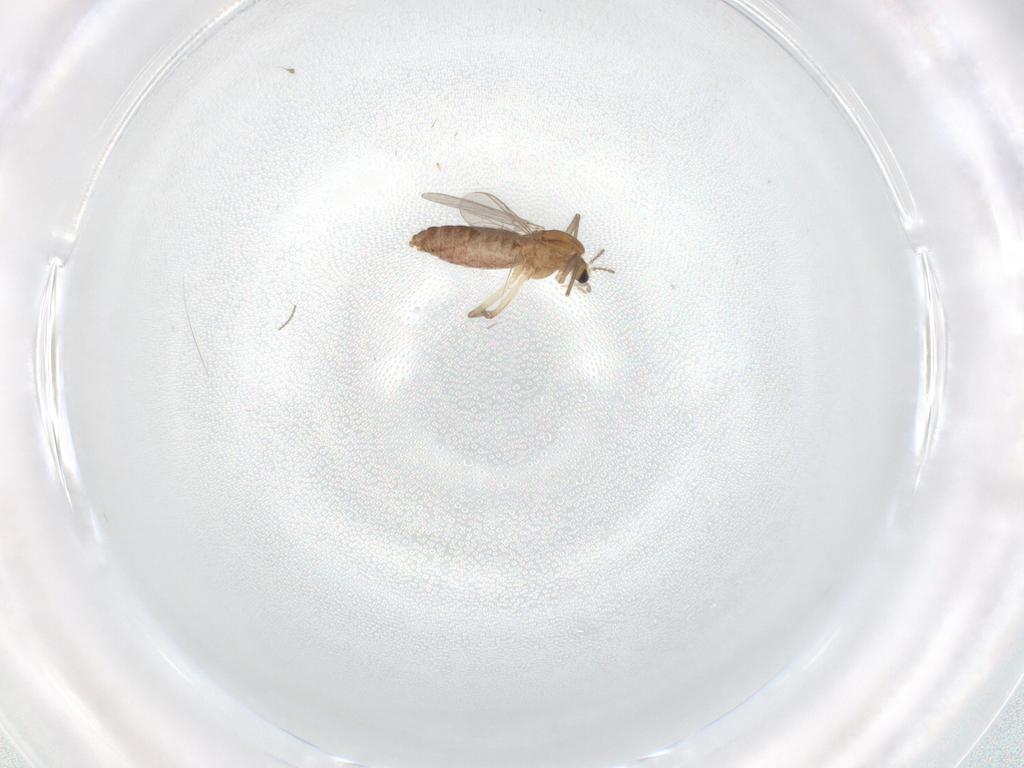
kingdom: Animalia
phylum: Arthropoda
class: Insecta
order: Diptera
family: Chironomidae
